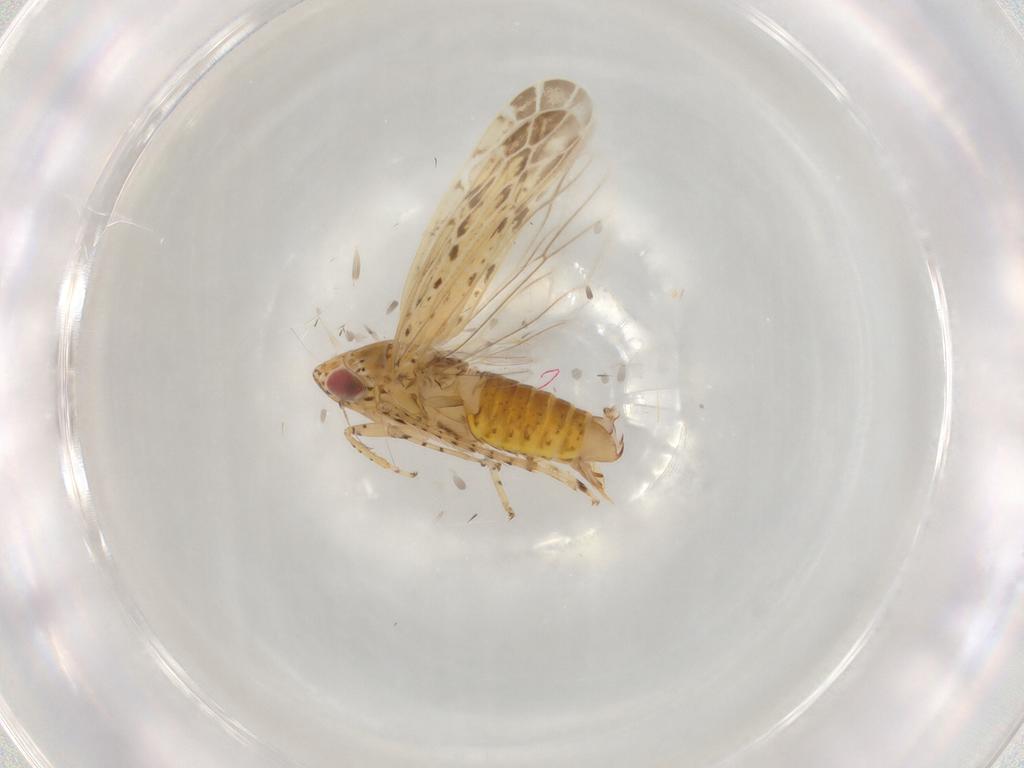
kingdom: Animalia
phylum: Arthropoda
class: Insecta
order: Hemiptera
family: Cicadellidae
